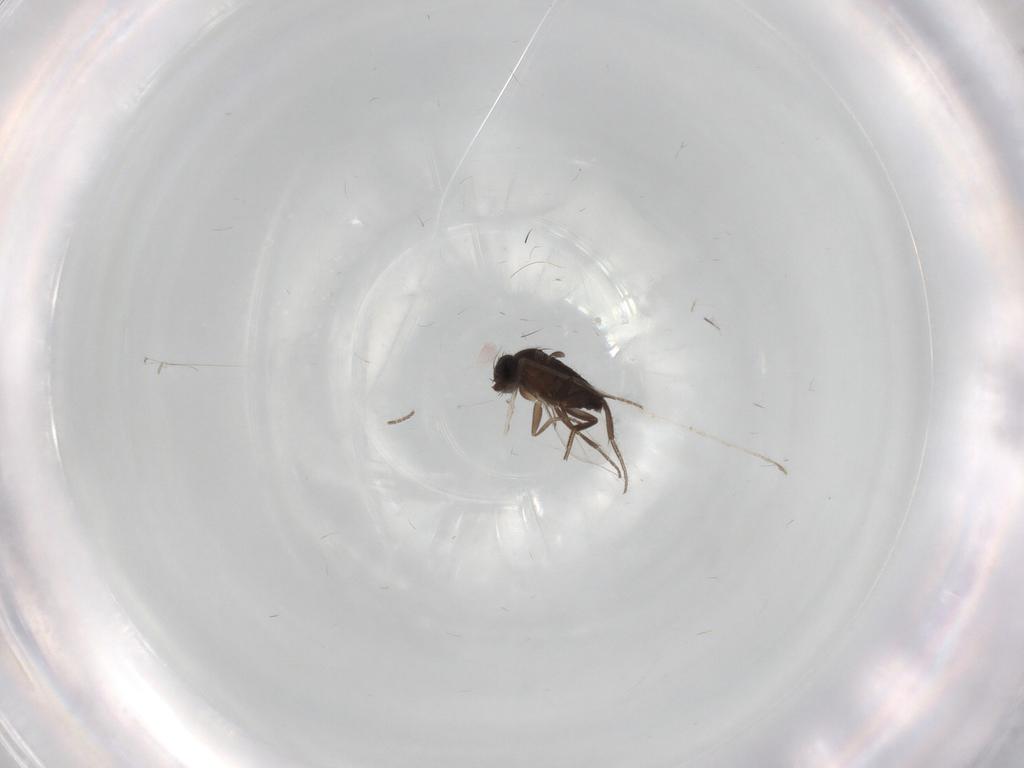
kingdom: Animalia
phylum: Arthropoda
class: Insecta
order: Diptera
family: Phoridae
